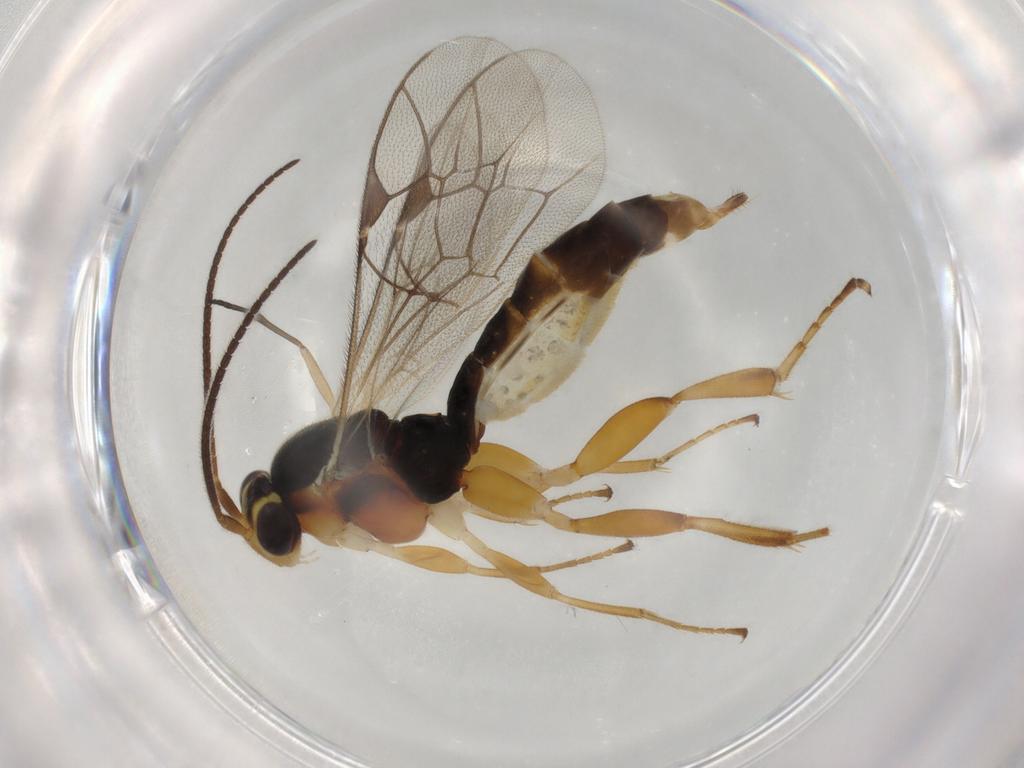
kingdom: Animalia
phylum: Arthropoda
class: Insecta
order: Hymenoptera
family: Ichneumonidae
